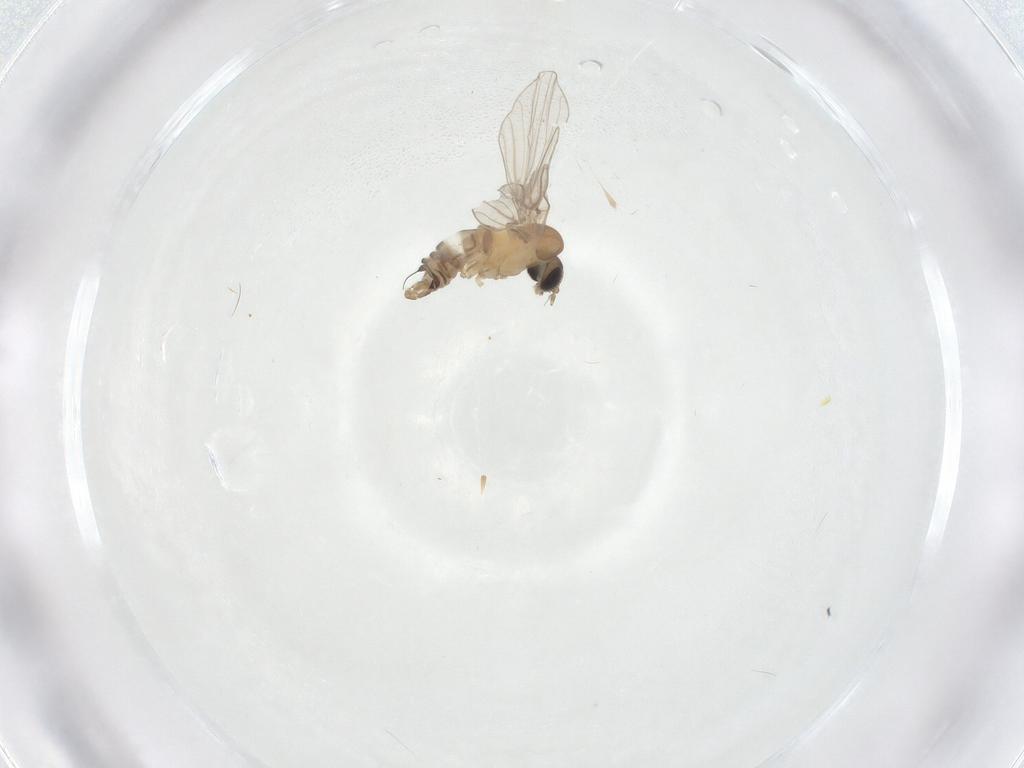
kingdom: Animalia
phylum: Arthropoda
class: Insecta
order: Diptera
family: Psychodidae
